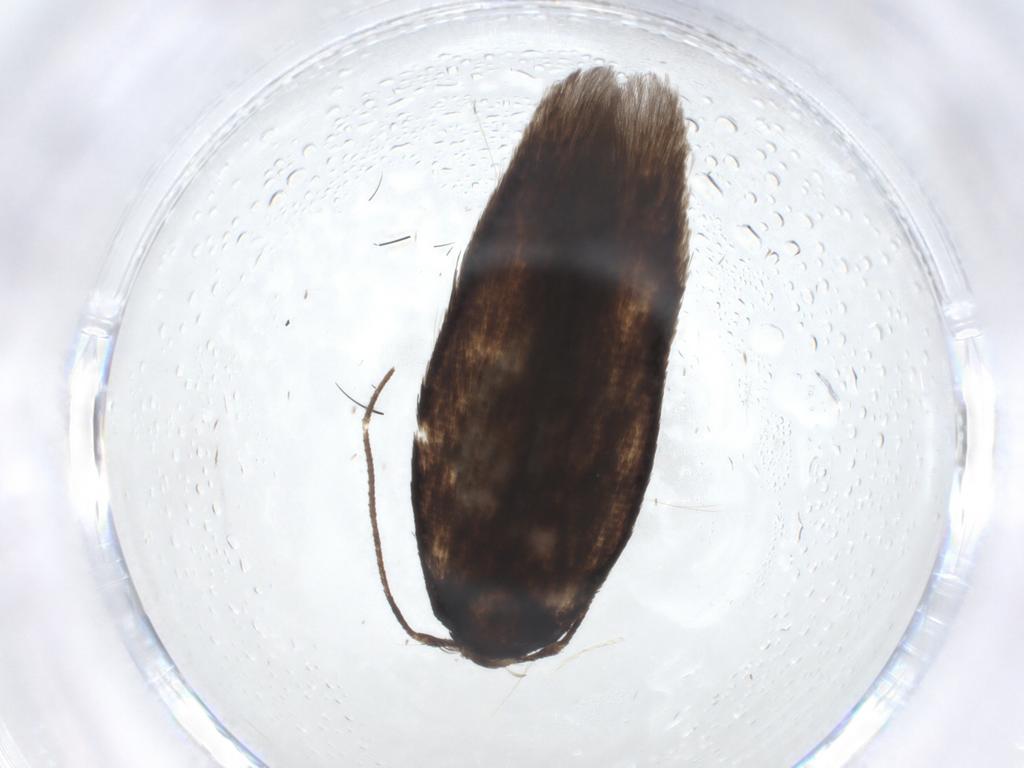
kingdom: Animalia
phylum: Arthropoda
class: Insecta
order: Lepidoptera
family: Cosmopterigidae
